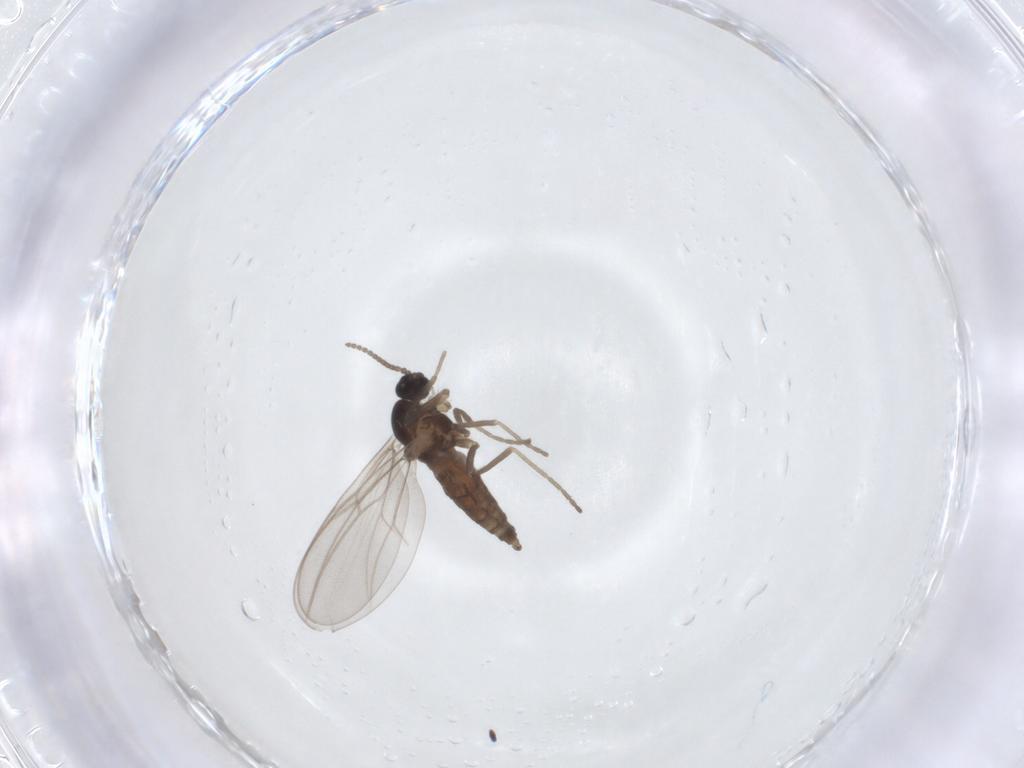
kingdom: Animalia
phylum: Arthropoda
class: Insecta
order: Diptera
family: Cecidomyiidae
